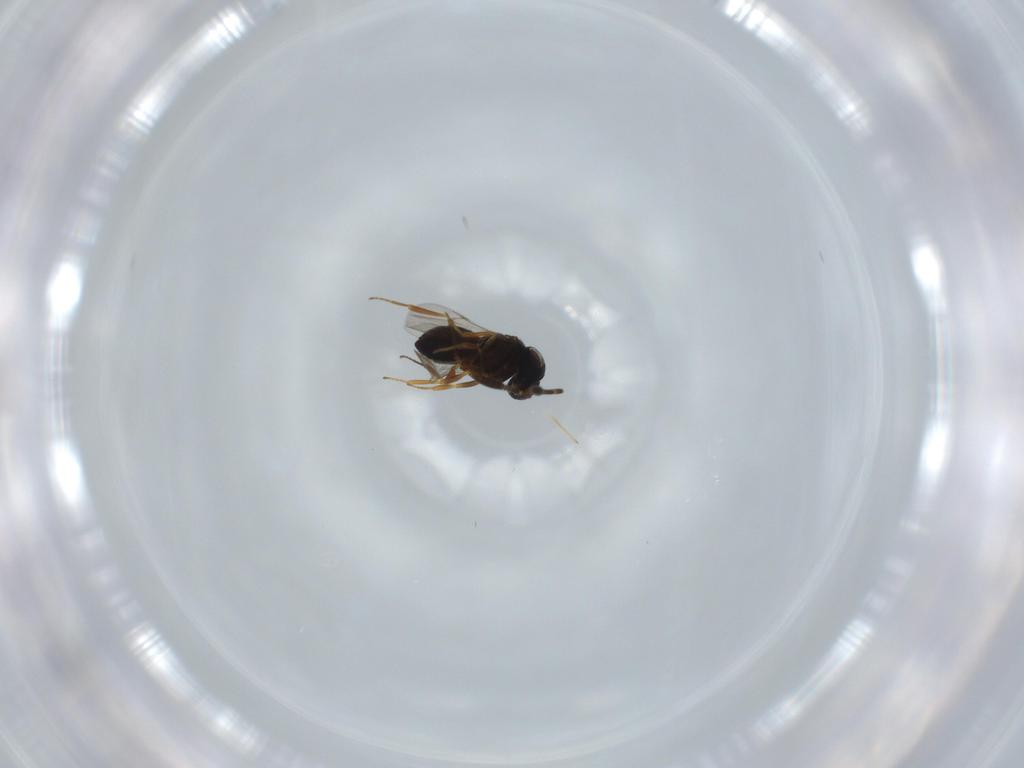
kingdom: Animalia
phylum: Arthropoda
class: Insecta
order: Hymenoptera
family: Scelionidae
